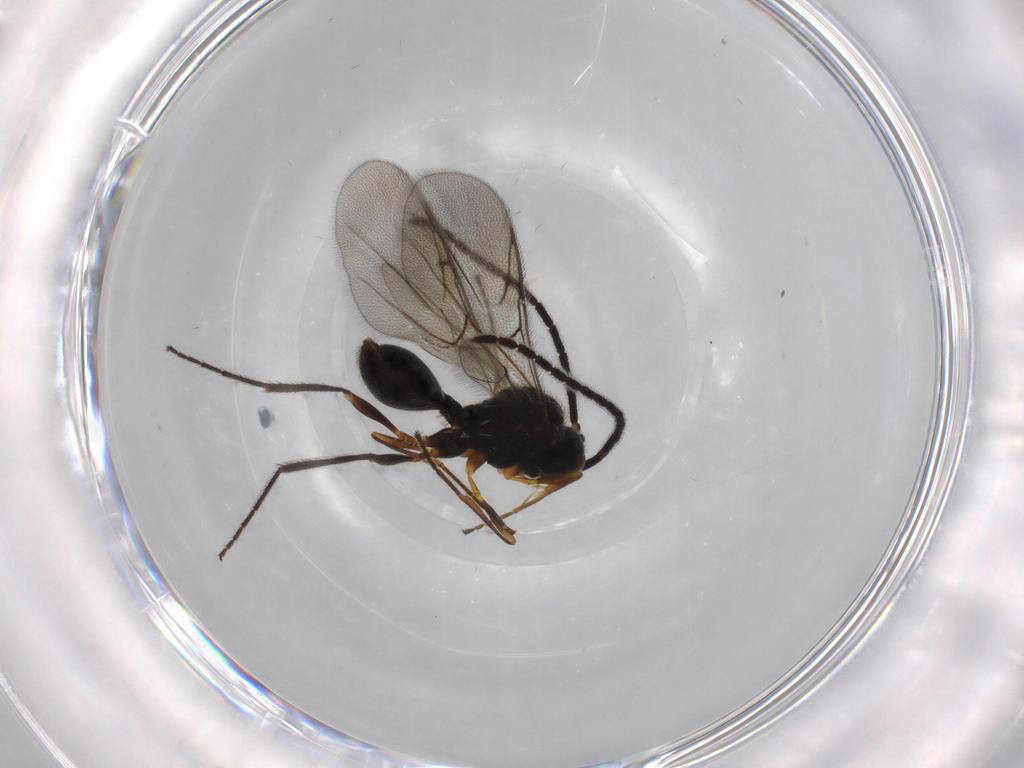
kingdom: Animalia
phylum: Arthropoda
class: Insecta
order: Hymenoptera
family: Diapriidae
